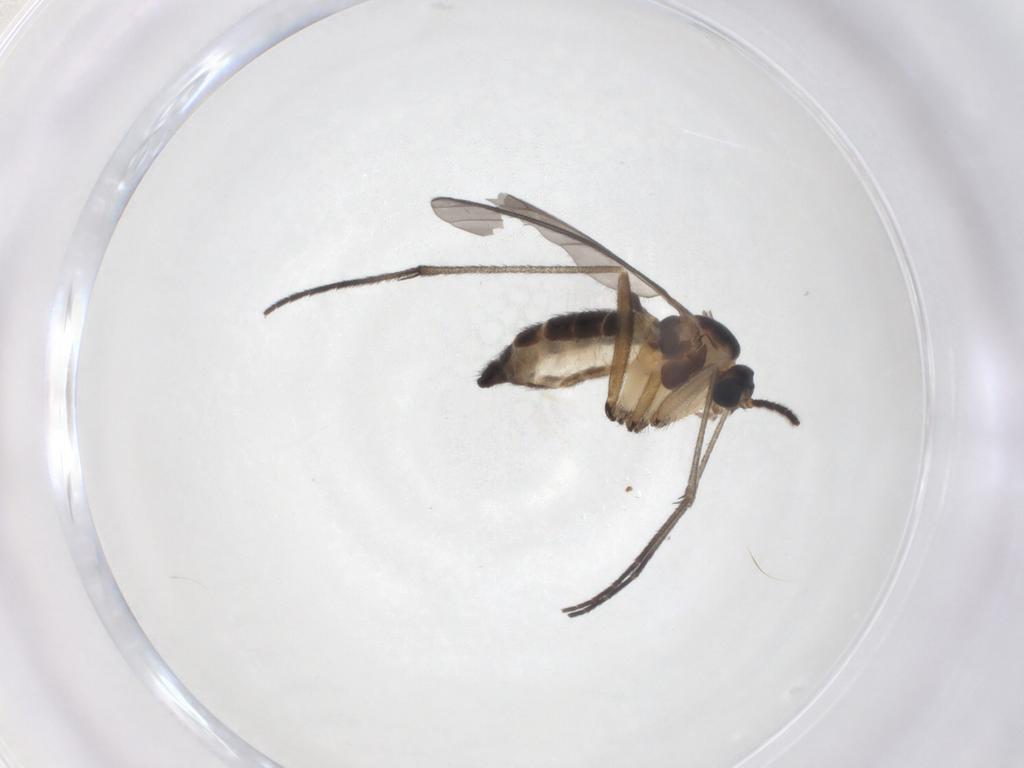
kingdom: Animalia
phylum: Arthropoda
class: Insecta
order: Diptera
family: Sciaridae
